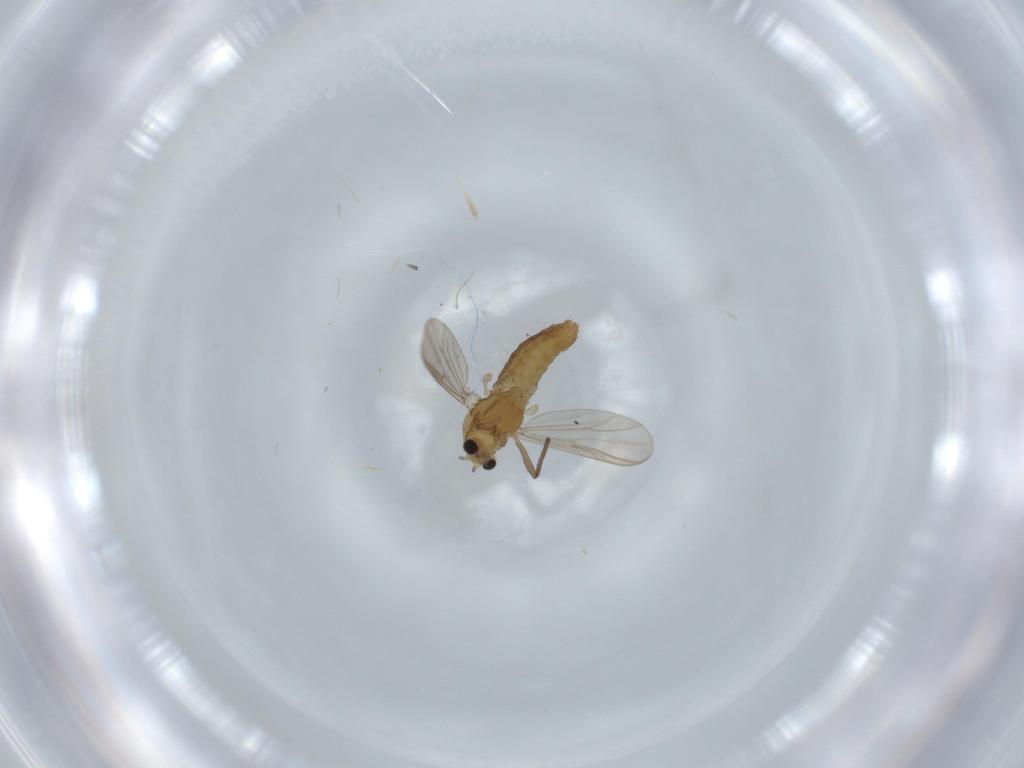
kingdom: Animalia
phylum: Arthropoda
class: Insecta
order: Diptera
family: Chironomidae
